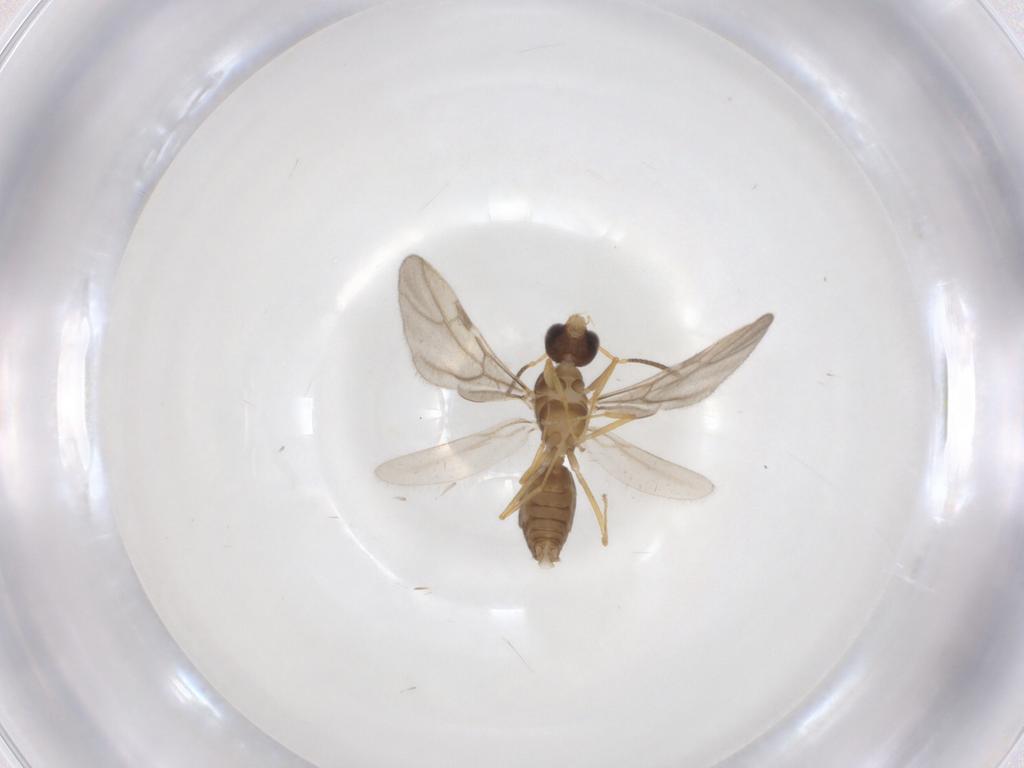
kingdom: Animalia
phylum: Arthropoda
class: Insecta
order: Hymenoptera
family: Formicidae
